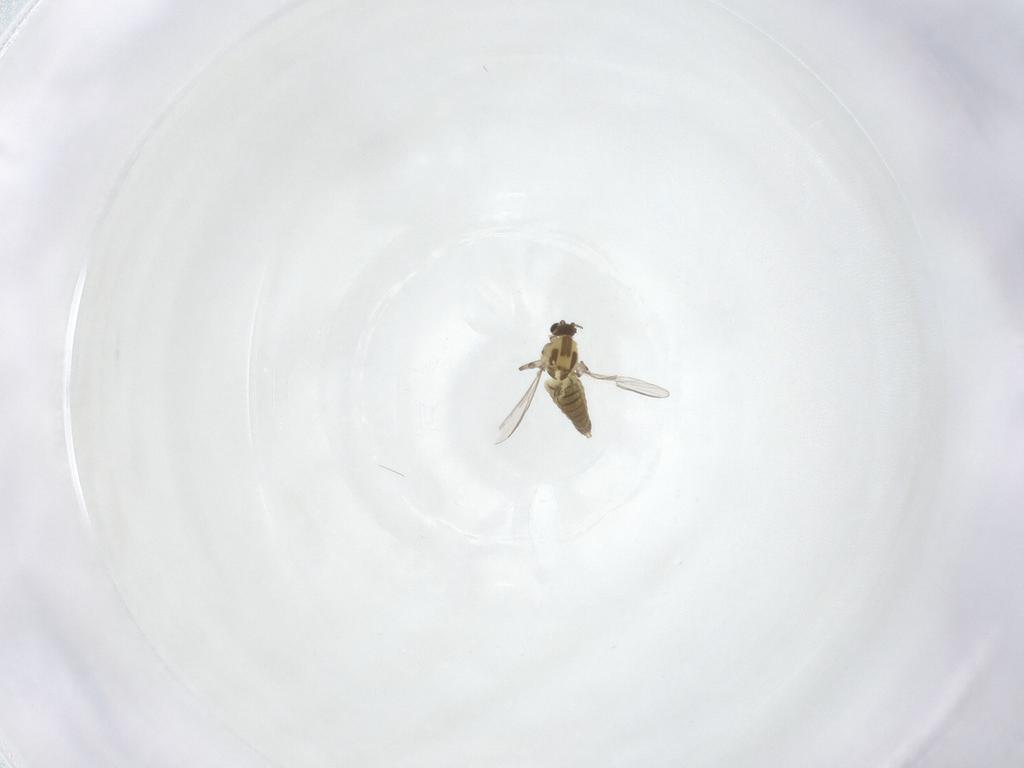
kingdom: Animalia
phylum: Arthropoda
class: Insecta
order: Diptera
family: Chironomidae
